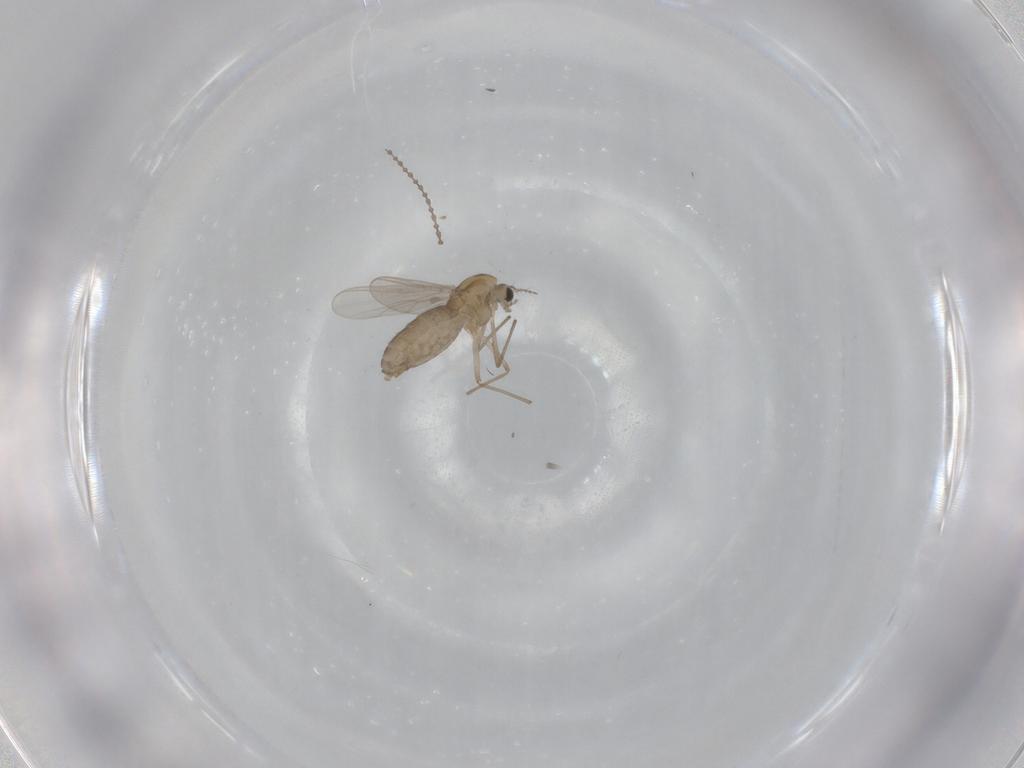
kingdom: Animalia
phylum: Arthropoda
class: Insecta
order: Diptera
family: Chironomidae
